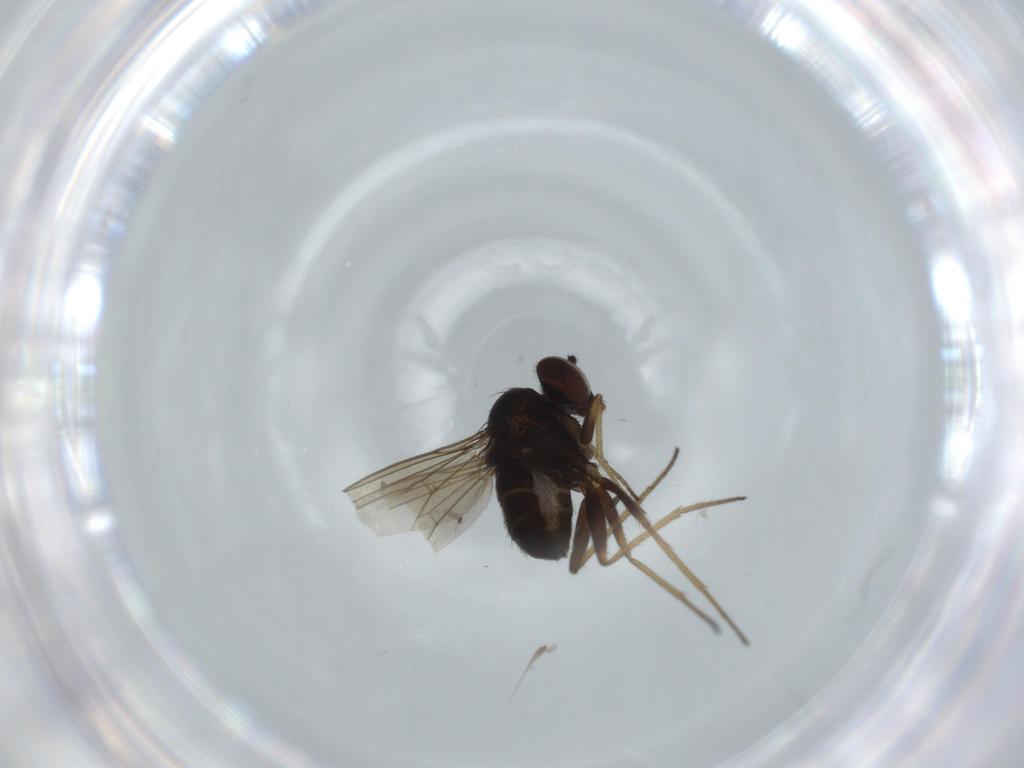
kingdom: Animalia
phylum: Arthropoda
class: Insecta
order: Diptera
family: Dolichopodidae
